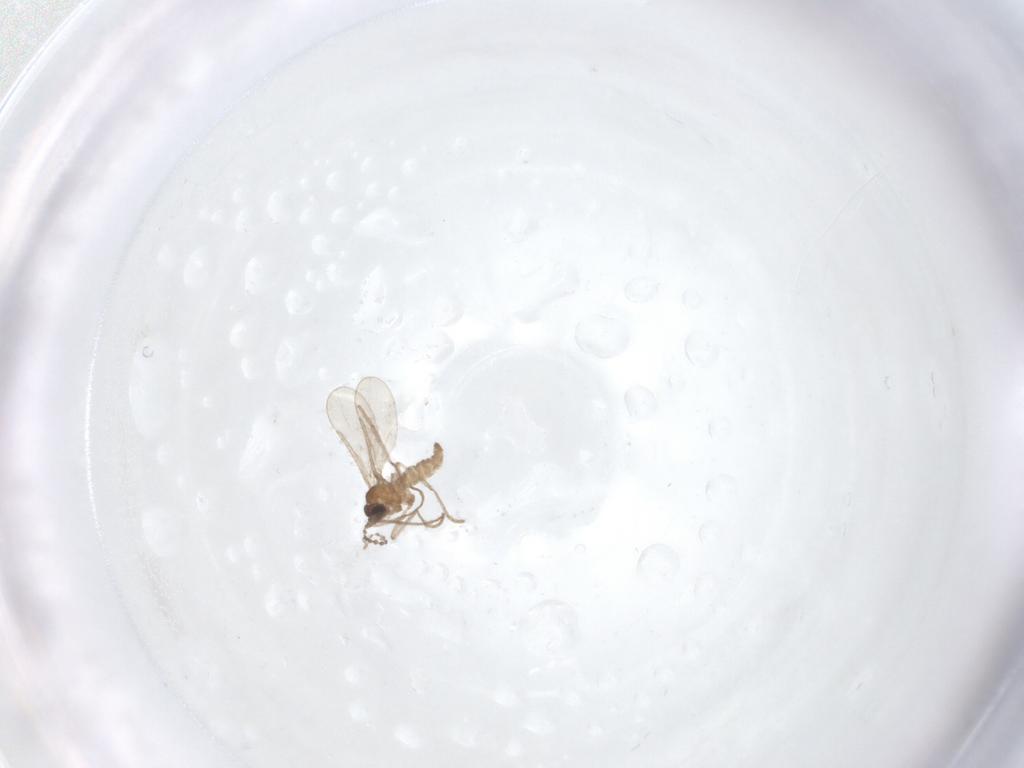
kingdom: Animalia
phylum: Arthropoda
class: Insecta
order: Diptera
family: Cecidomyiidae
